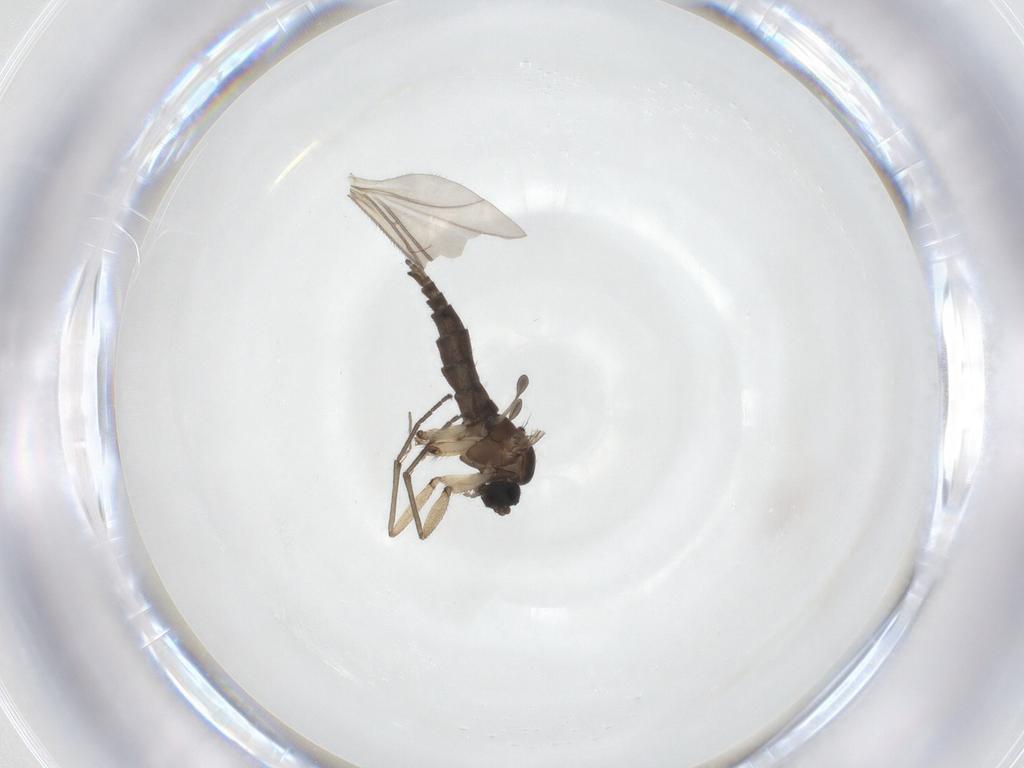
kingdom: Animalia
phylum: Arthropoda
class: Insecta
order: Diptera
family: Sciaridae
